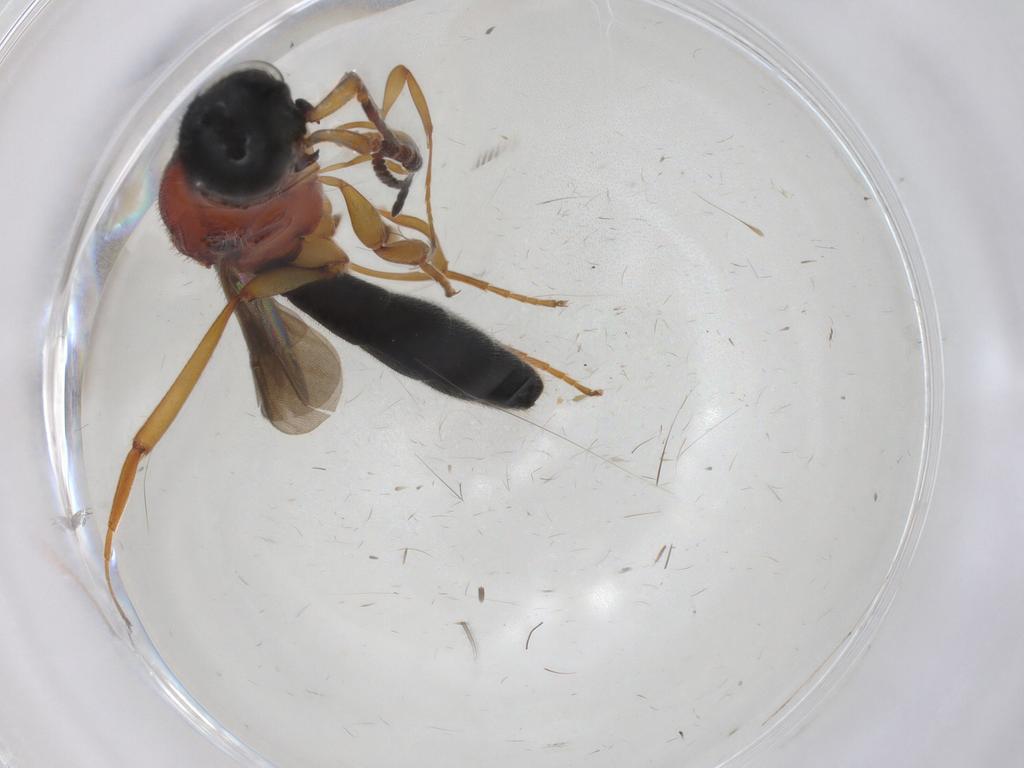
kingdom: Animalia
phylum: Arthropoda
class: Insecta
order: Hymenoptera
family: Scelionidae
